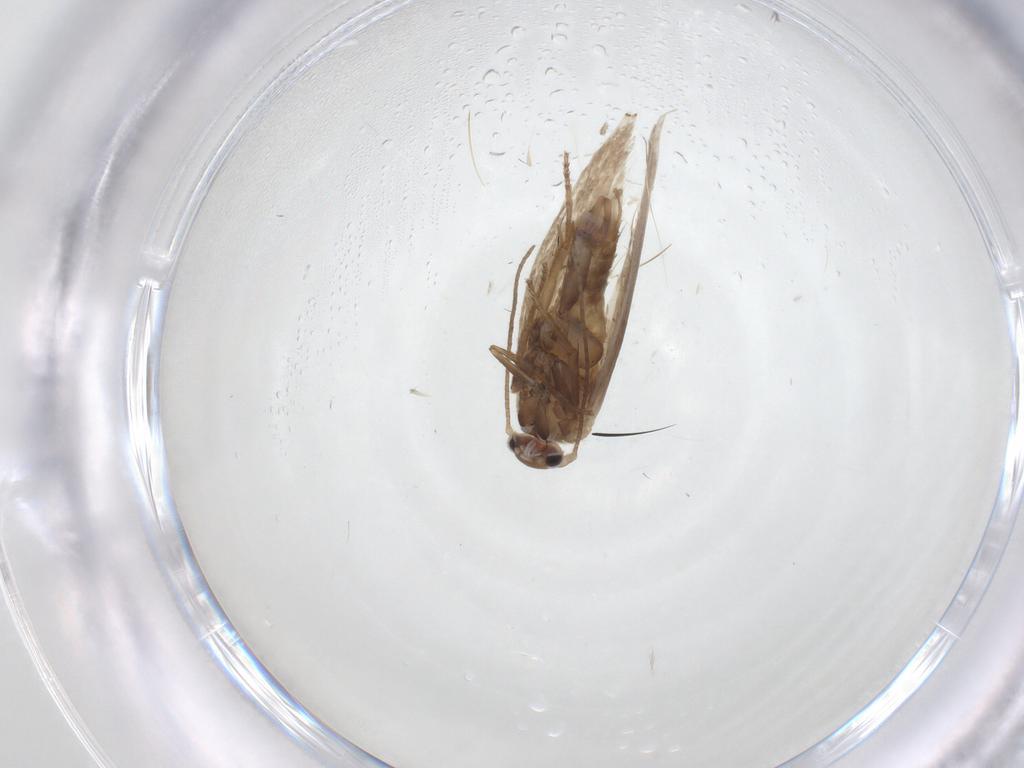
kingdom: Animalia
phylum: Arthropoda
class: Insecta
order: Lepidoptera
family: Bucculatricidae
